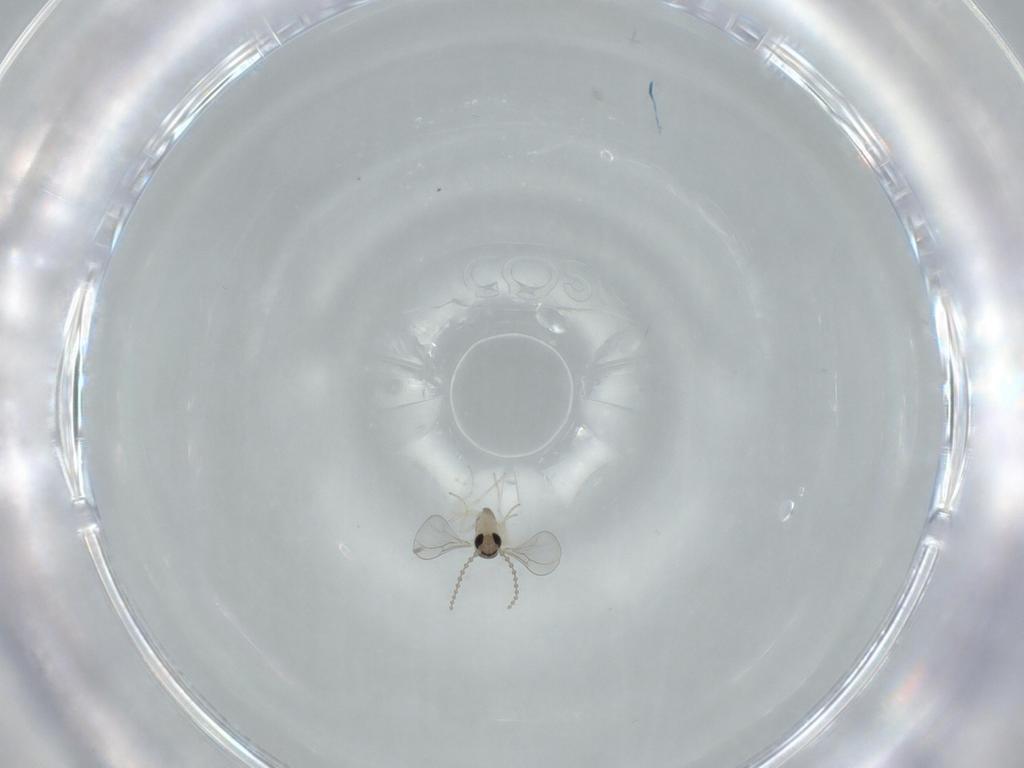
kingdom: Animalia
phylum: Arthropoda
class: Insecta
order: Diptera
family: Cecidomyiidae
